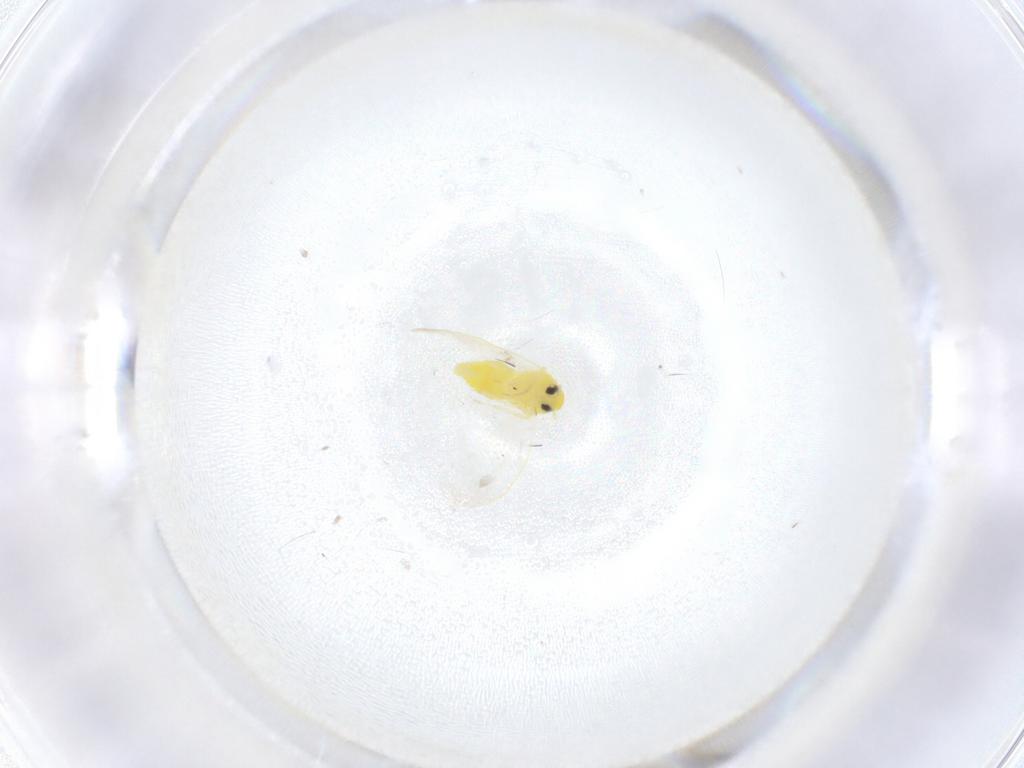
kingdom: Animalia
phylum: Arthropoda
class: Insecta
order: Hemiptera
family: Aleyrodidae
